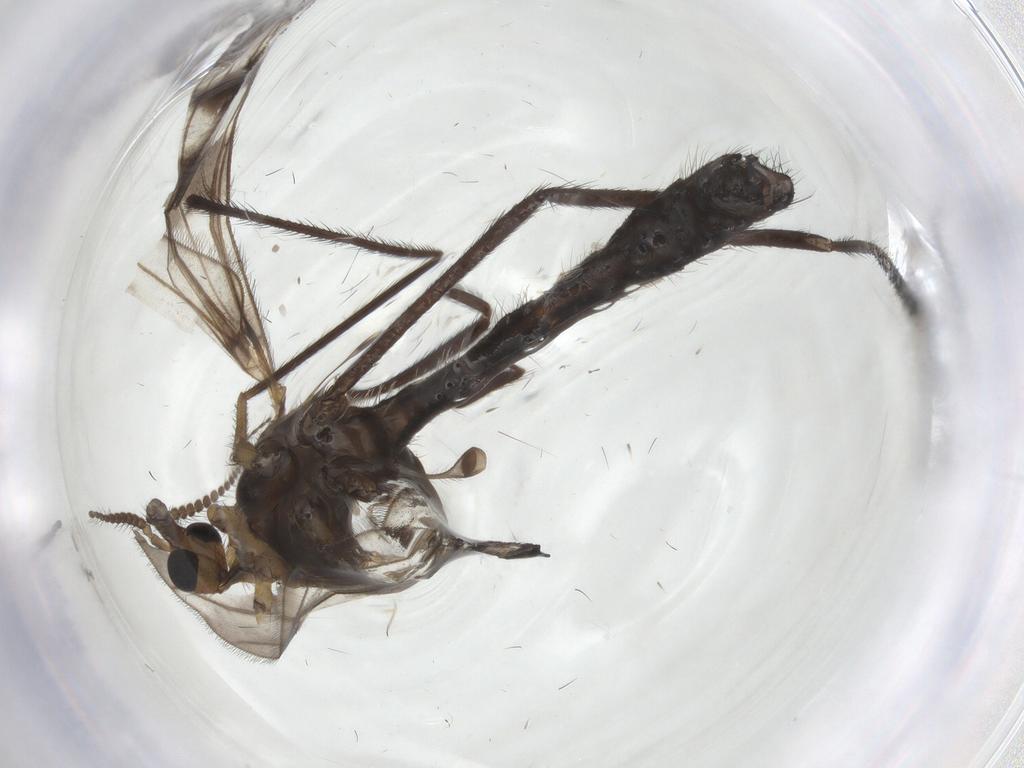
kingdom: Animalia
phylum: Arthropoda
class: Insecta
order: Diptera
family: Limoniidae
